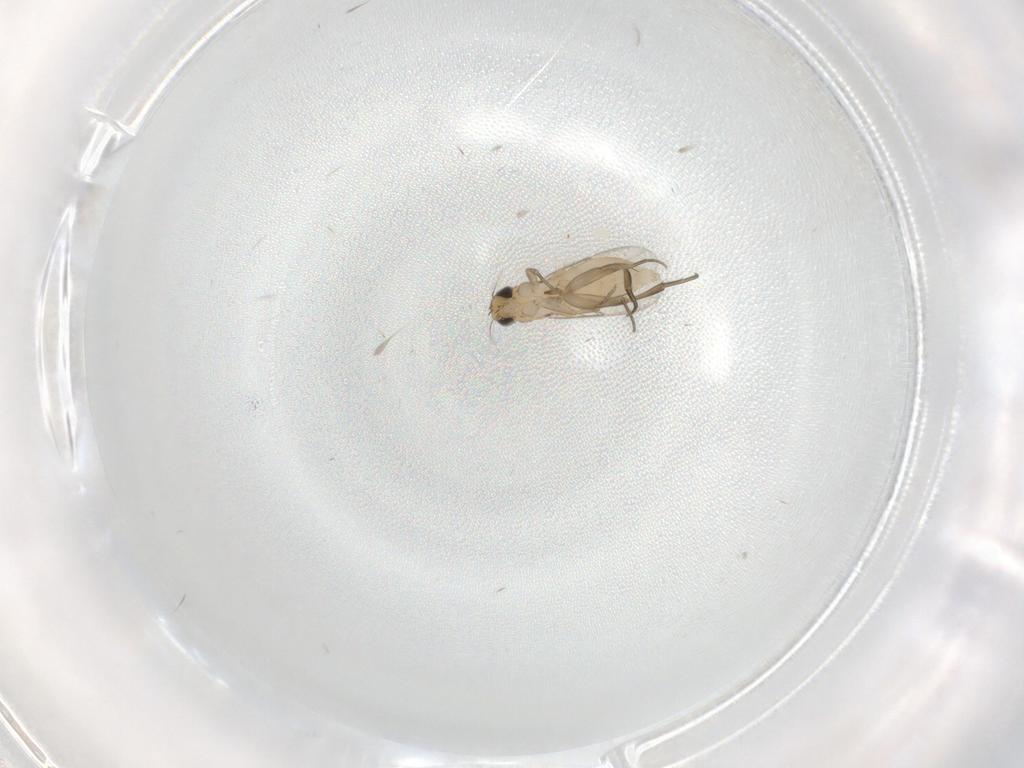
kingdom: Animalia
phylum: Arthropoda
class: Insecta
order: Diptera
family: Phoridae
